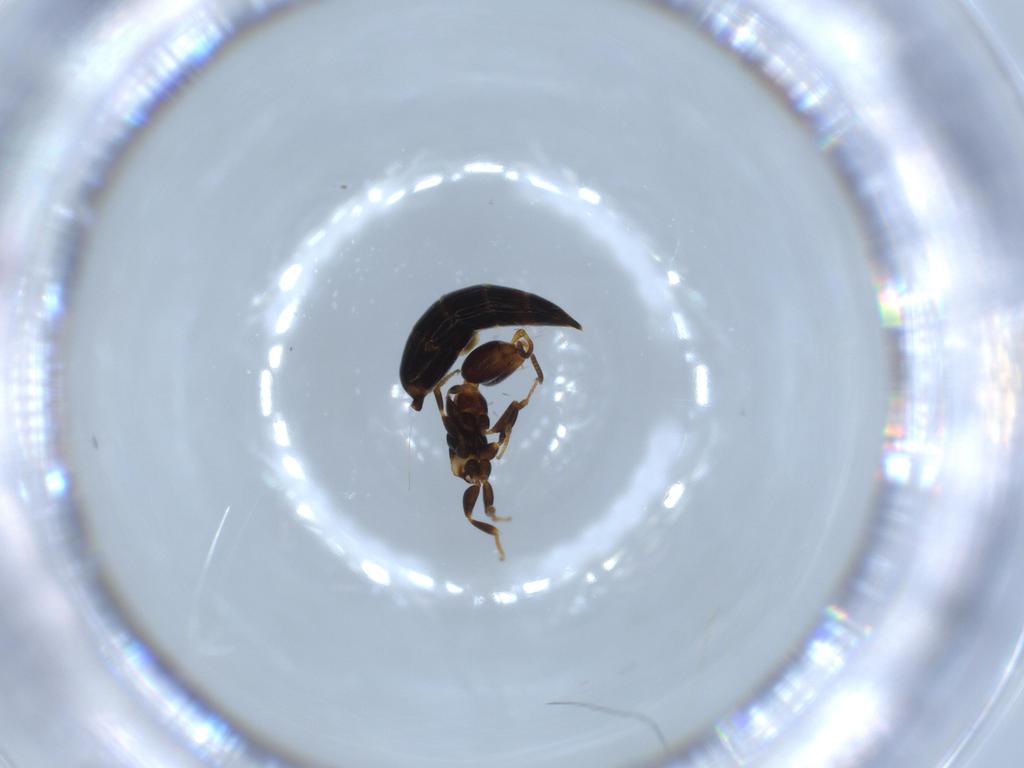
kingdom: Animalia
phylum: Arthropoda
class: Insecta
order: Hymenoptera
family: Bethylidae
